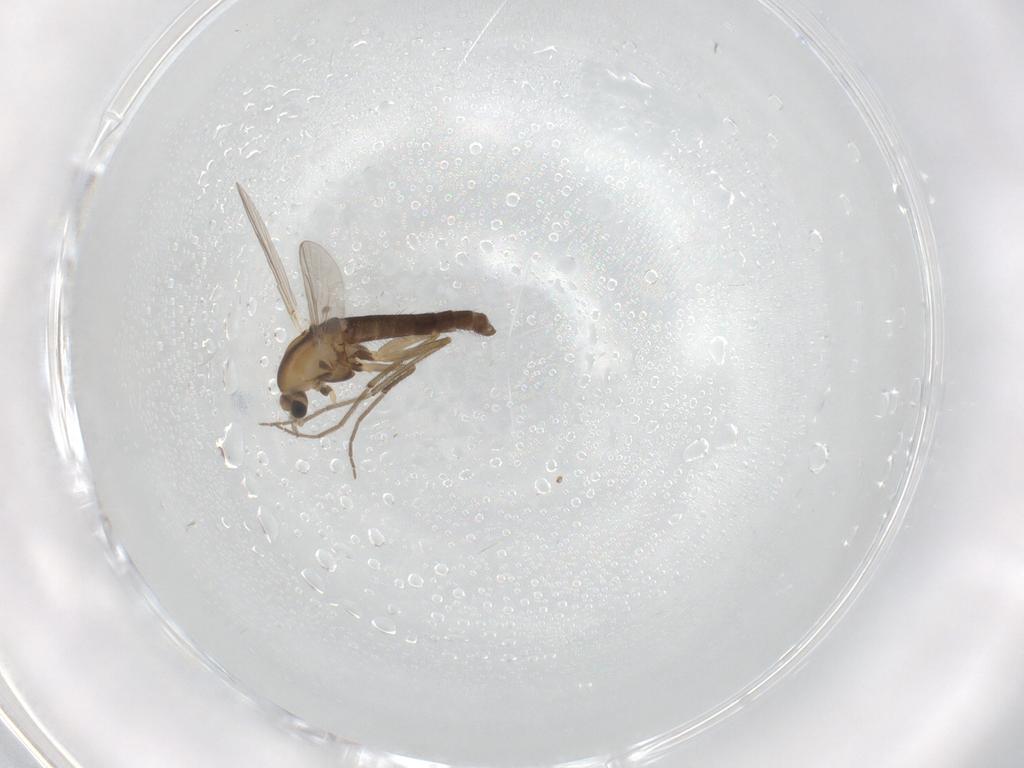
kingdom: Animalia
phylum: Arthropoda
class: Insecta
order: Diptera
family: Chironomidae
